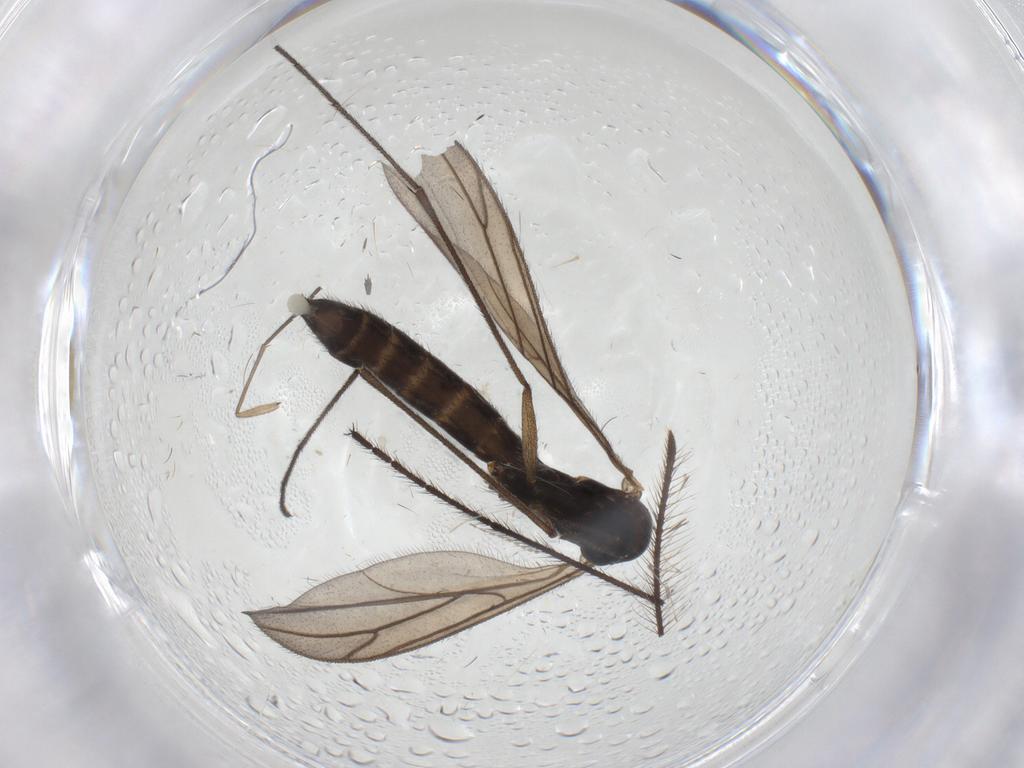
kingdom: Animalia
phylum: Arthropoda
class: Insecta
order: Diptera
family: Ditomyiidae
